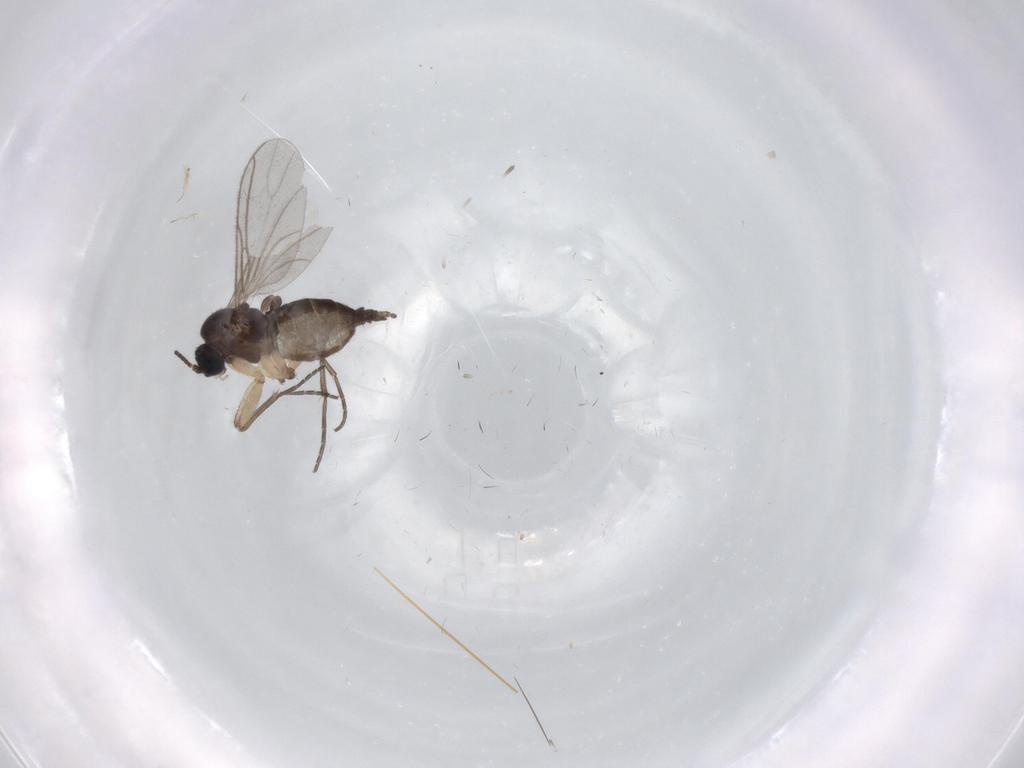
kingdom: Animalia
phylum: Arthropoda
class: Insecta
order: Diptera
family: Sciaridae
